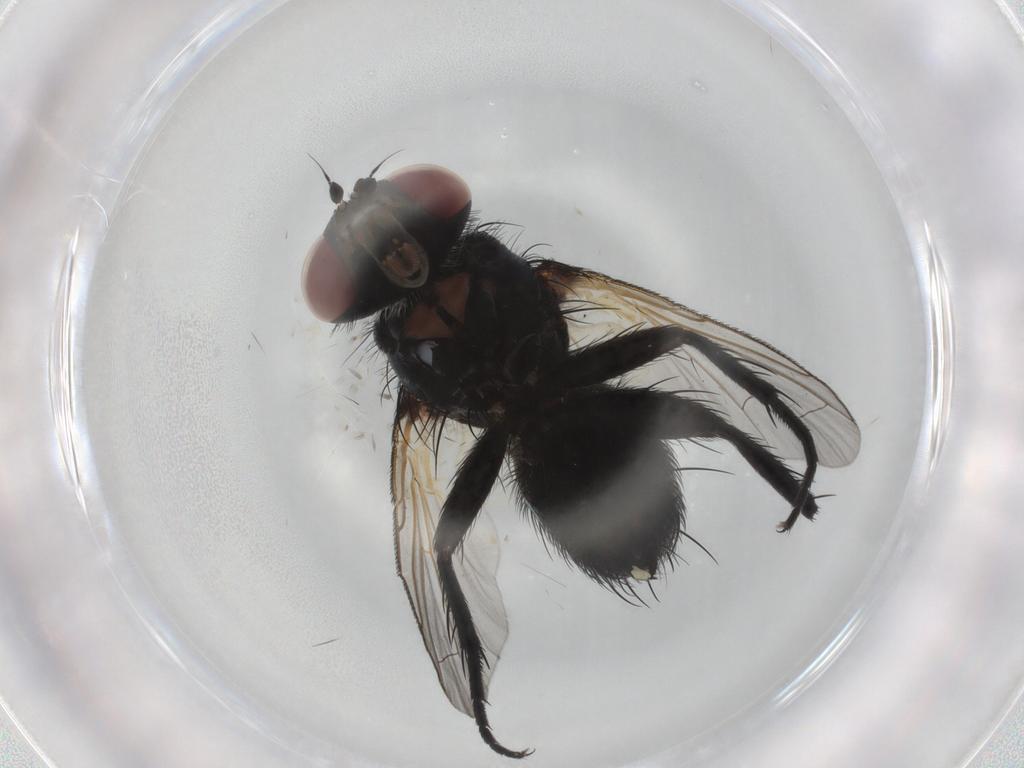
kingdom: Animalia
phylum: Arthropoda
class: Insecta
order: Diptera
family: Tachinidae
